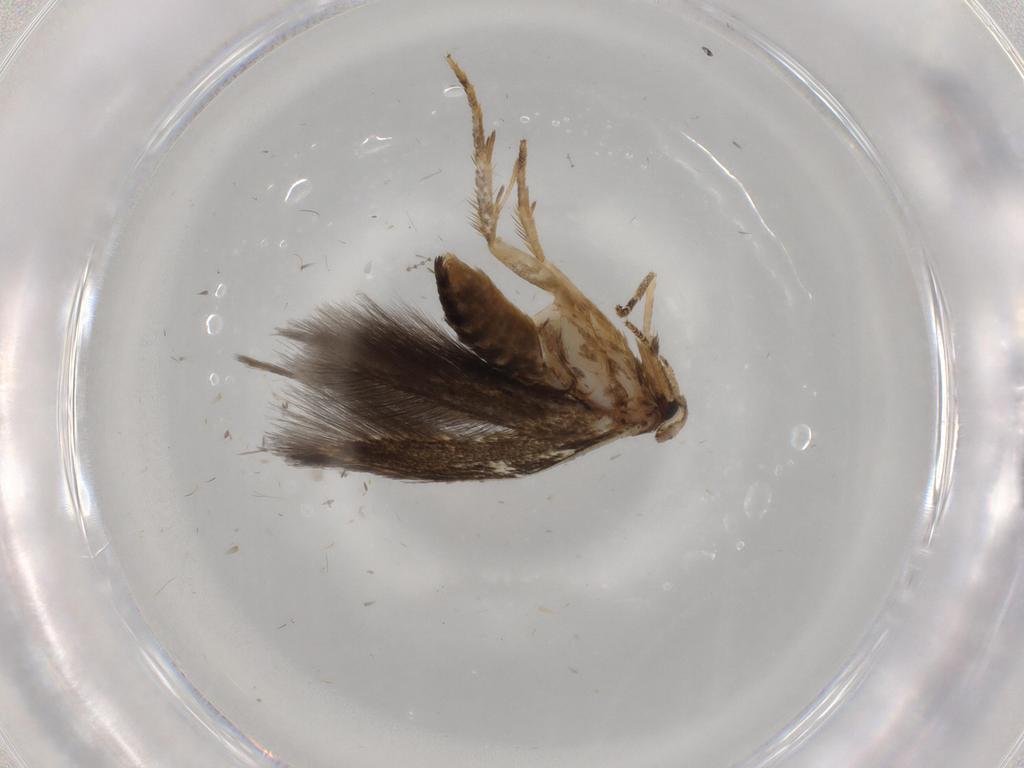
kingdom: Animalia
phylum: Arthropoda
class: Insecta
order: Lepidoptera
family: Opostegidae
